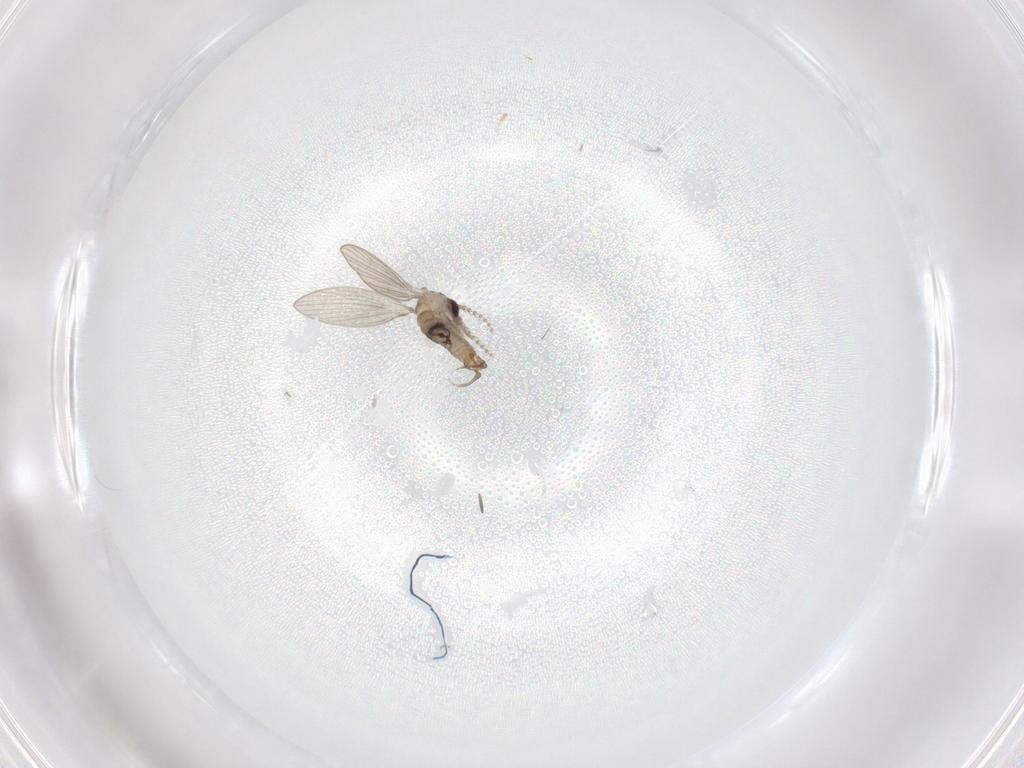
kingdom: Animalia
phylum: Arthropoda
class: Insecta
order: Diptera
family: Psychodidae
